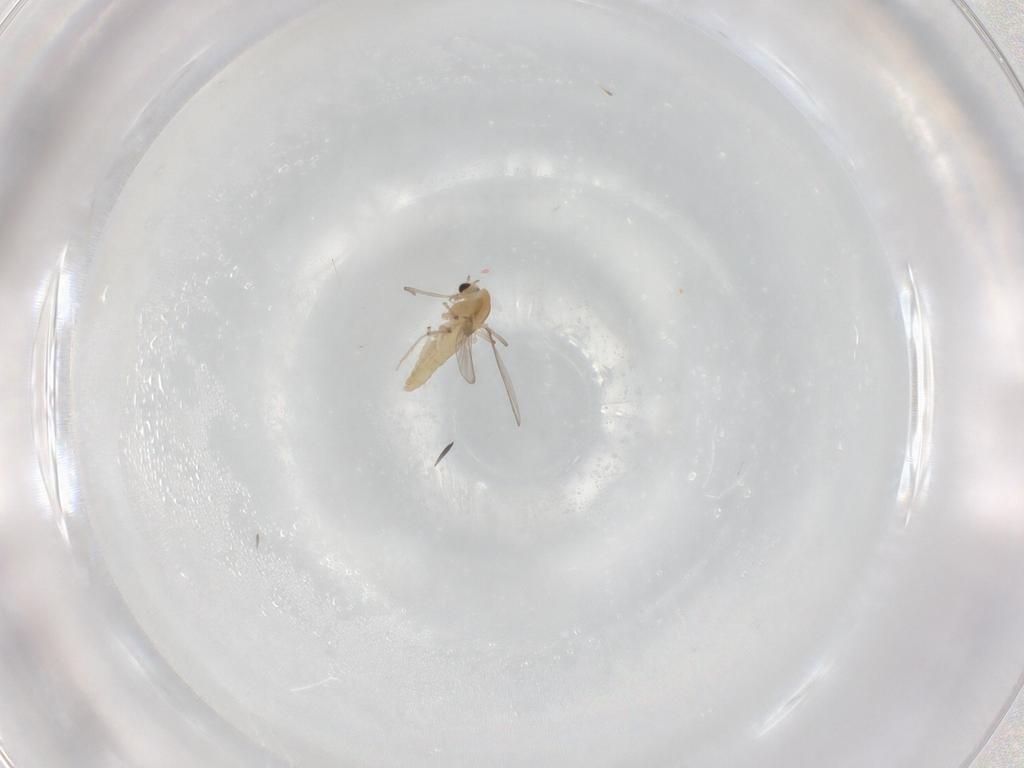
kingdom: Animalia
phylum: Arthropoda
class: Insecta
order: Diptera
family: Chironomidae
